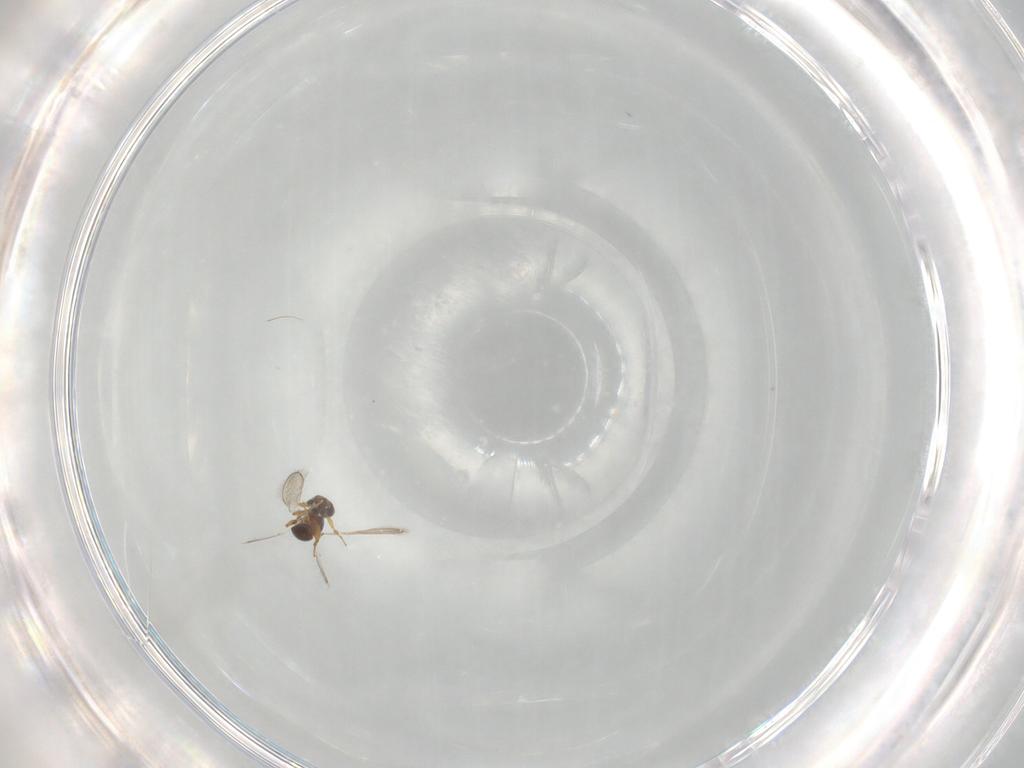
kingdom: Animalia
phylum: Arthropoda
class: Insecta
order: Hymenoptera
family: Platygastridae
